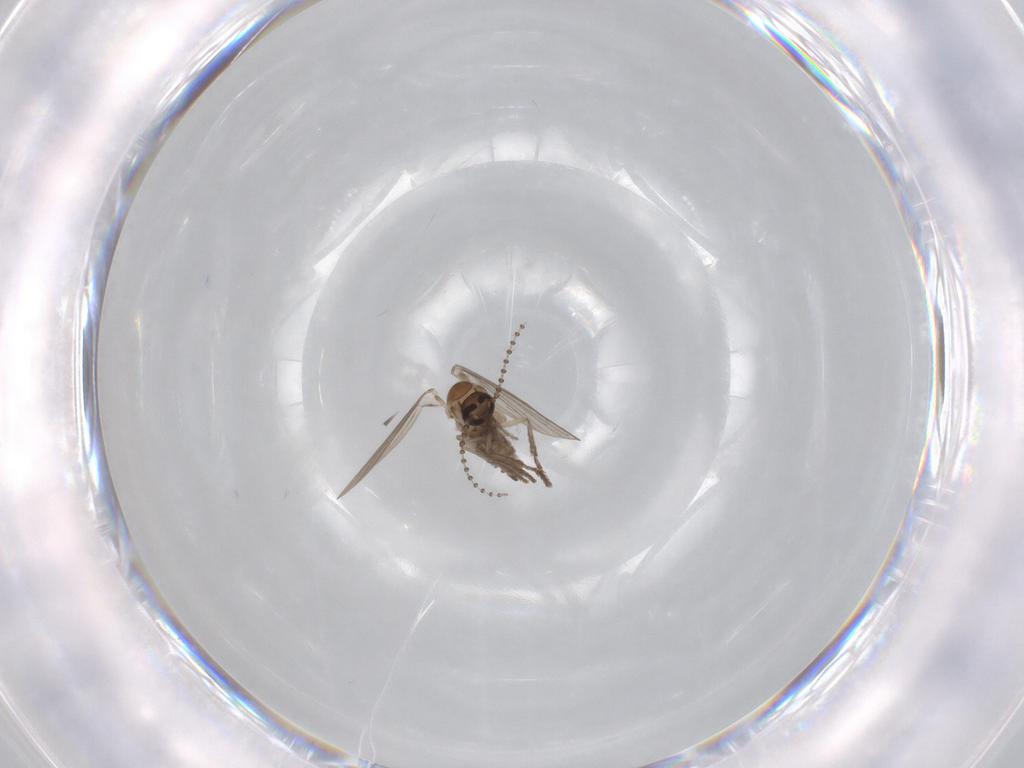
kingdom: Animalia
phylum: Arthropoda
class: Insecta
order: Diptera
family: Psychodidae
